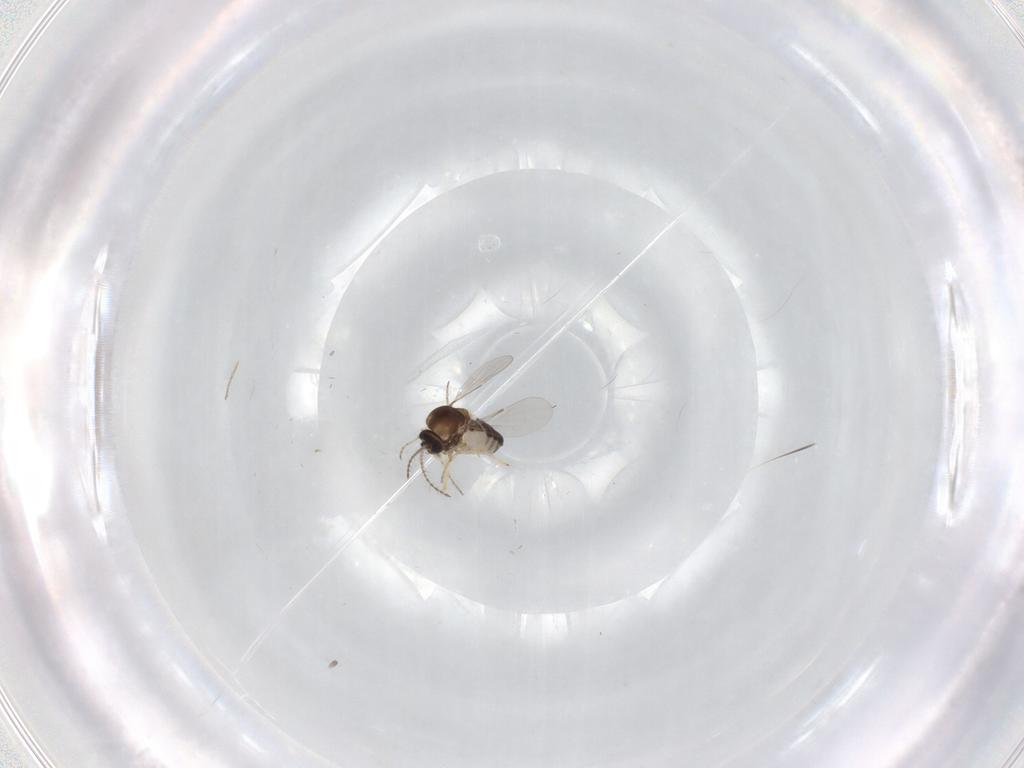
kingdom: Animalia
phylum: Arthropoda
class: Insecta
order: Diptera
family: Ceratopogonidae
